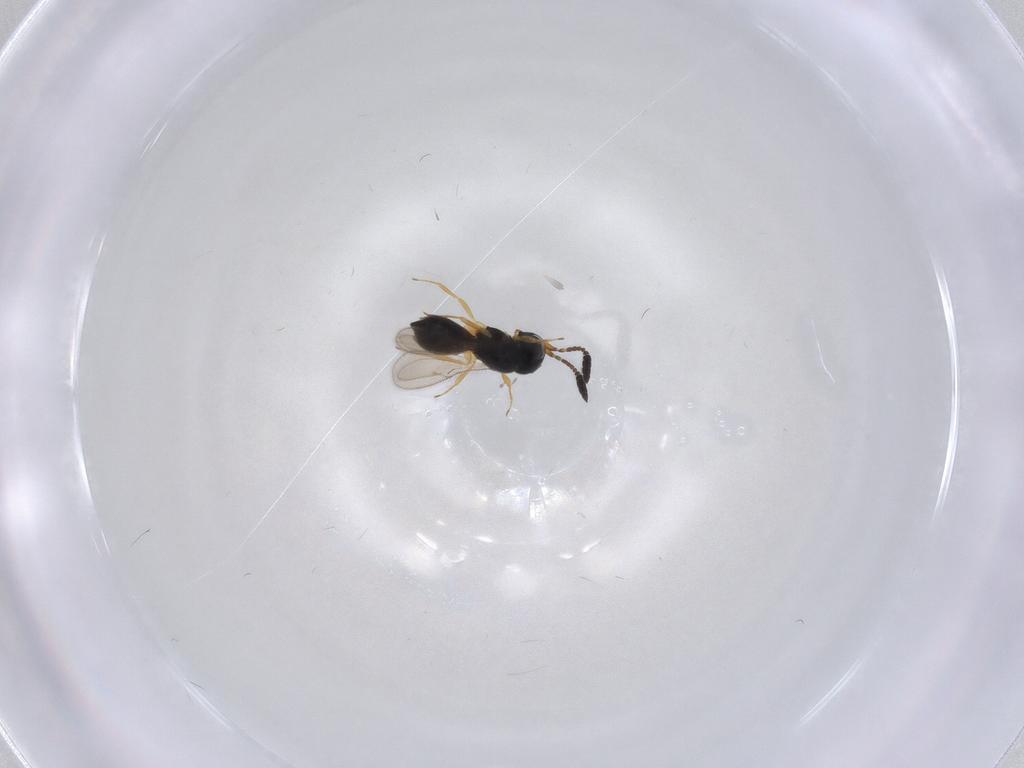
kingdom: Animalia
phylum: Arthropoda
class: Insecta
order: Hymenoptera
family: Scelionidae
